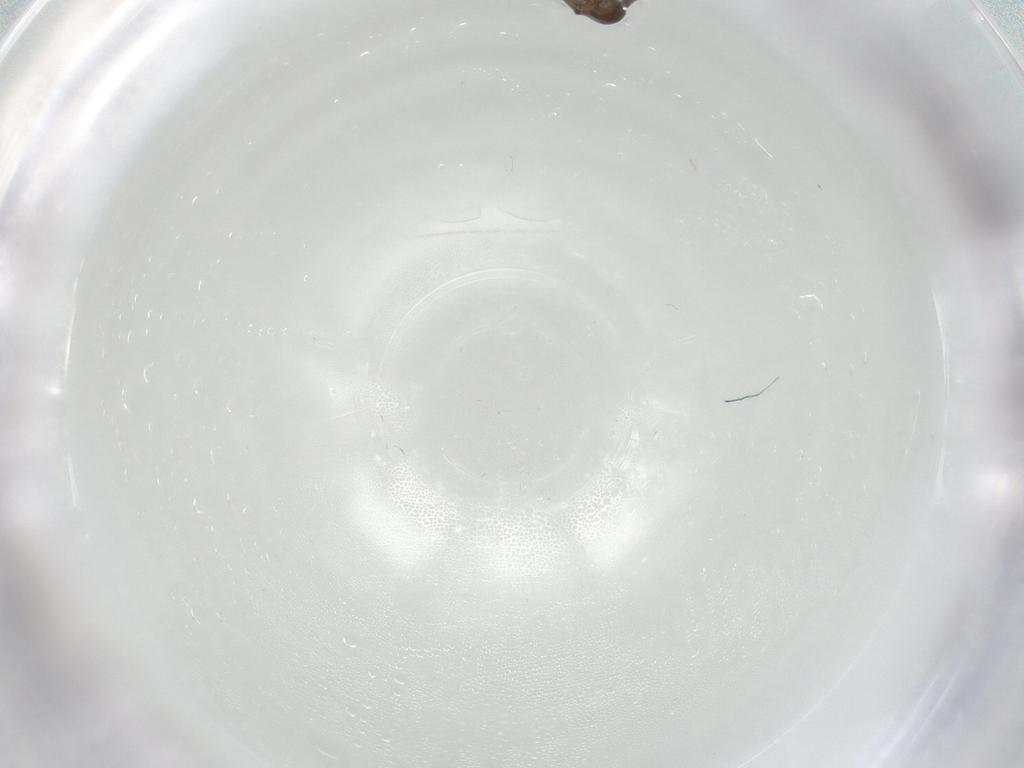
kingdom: Animalia
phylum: Arthropoda
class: Insecta
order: Diptera
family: Chironomidae
